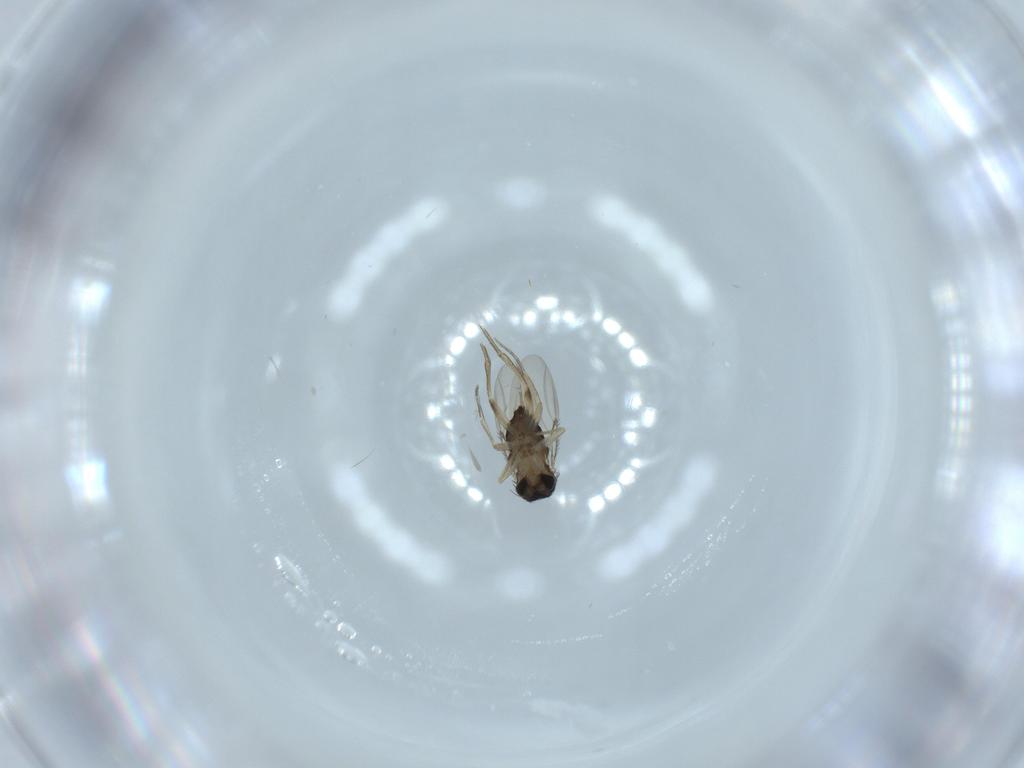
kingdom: Animalia
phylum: Arthropoda
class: Insecta
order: Diptera
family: Phoridae
